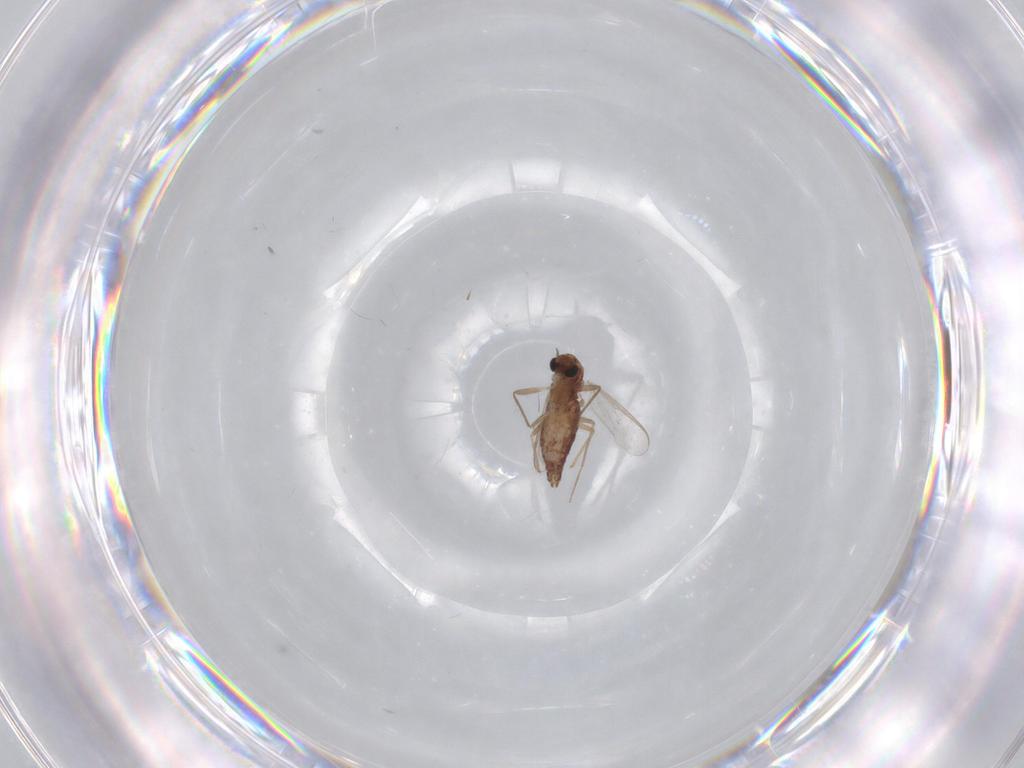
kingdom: Animalia
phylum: Arthropoda
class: Insecta
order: Diptera
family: Chironomidae
